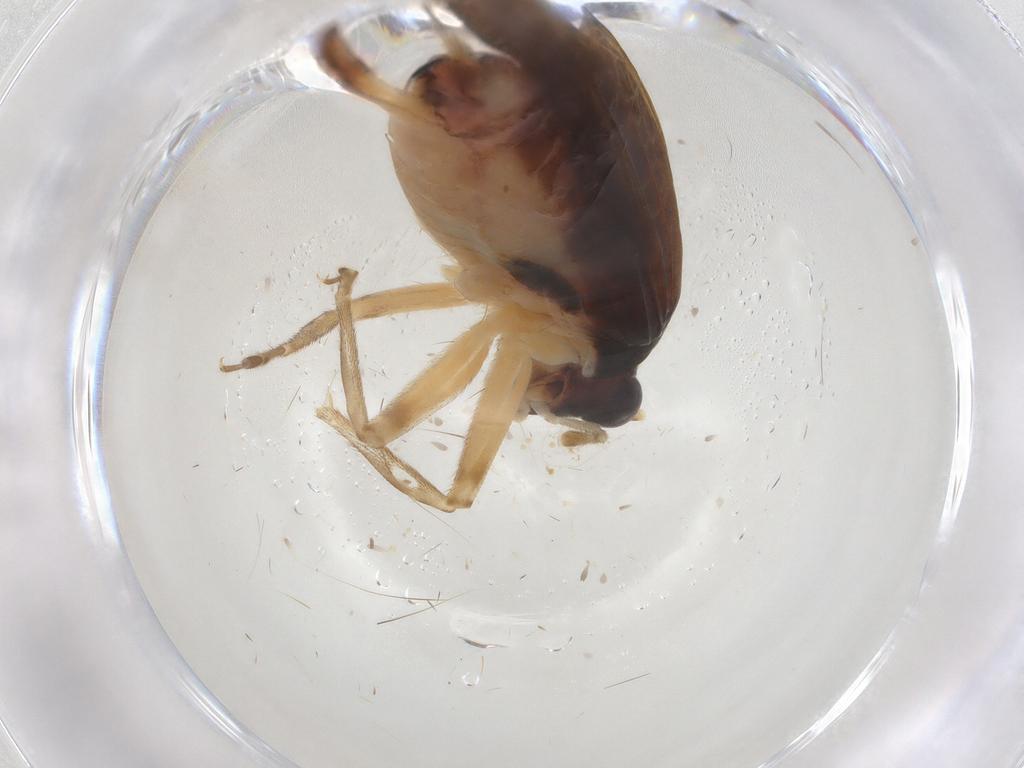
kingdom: Animalia
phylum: Arthropoda
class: Insecta
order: Orthoptera
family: Trigonidiidae
